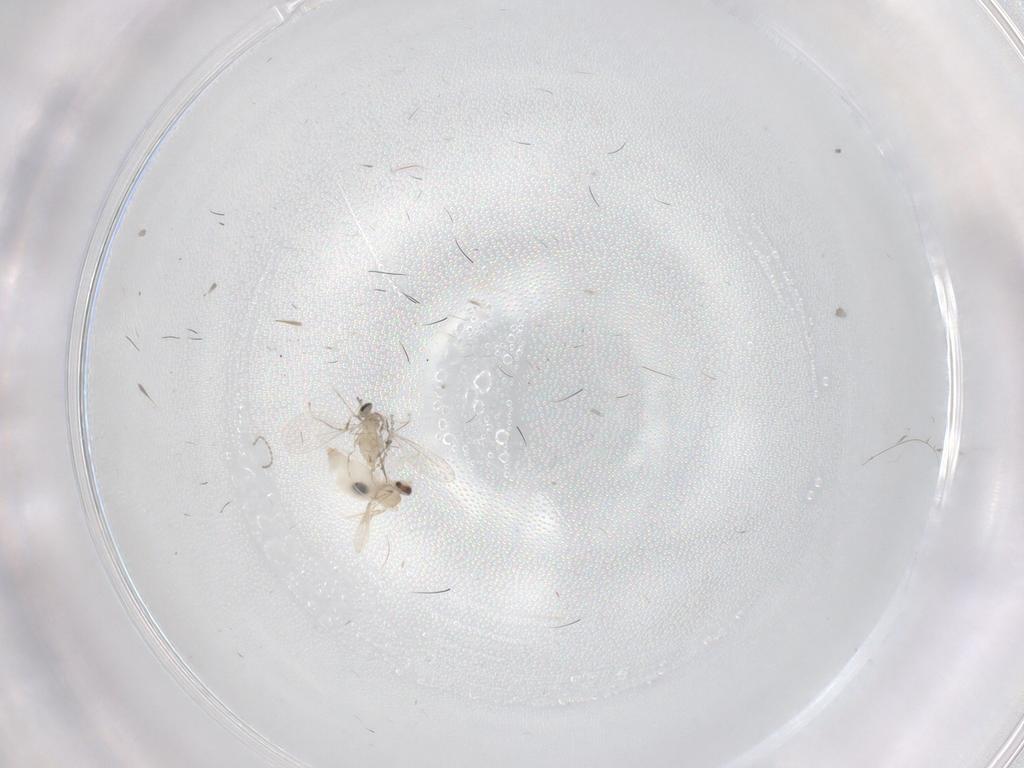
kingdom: Animalia
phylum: Arthropoda
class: Insecta
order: Diptera
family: Cecidomyiidae
